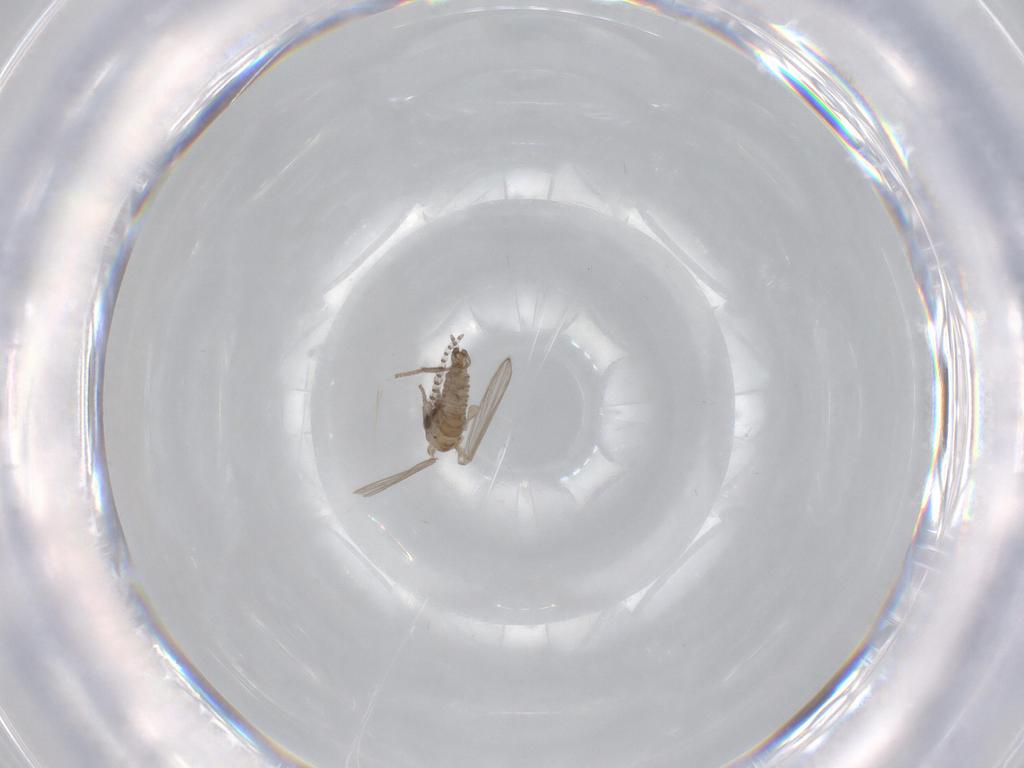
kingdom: Animalia
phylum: Arthropoda
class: Insecta
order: Diptera
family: Psychodidae
